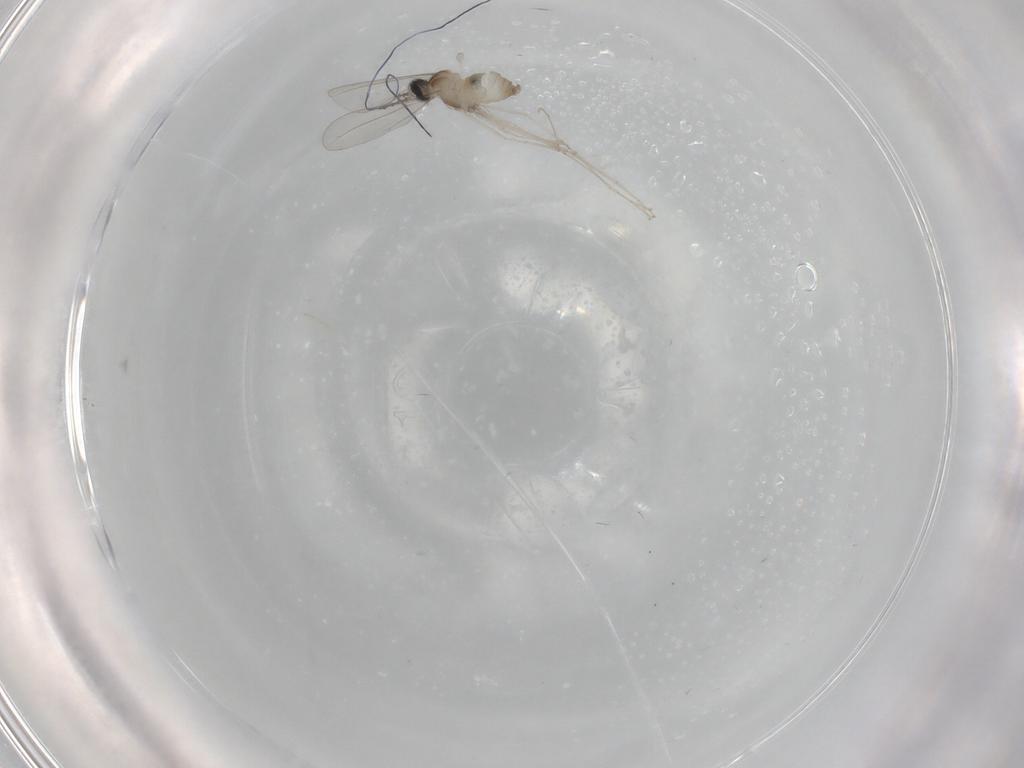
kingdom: Animalia
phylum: Arthropoda
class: Insecta
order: Diptera
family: Cecidomyiidae
